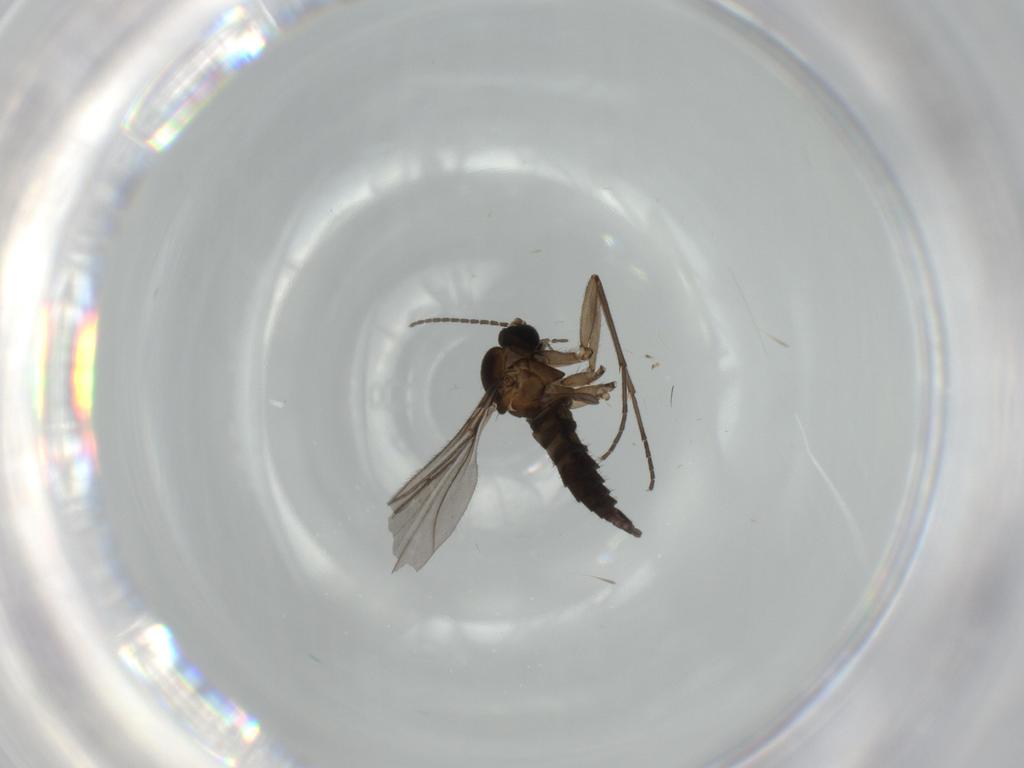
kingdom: Animalia
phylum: Arthropoda
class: Insecta
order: Diptera
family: Sciaridae
